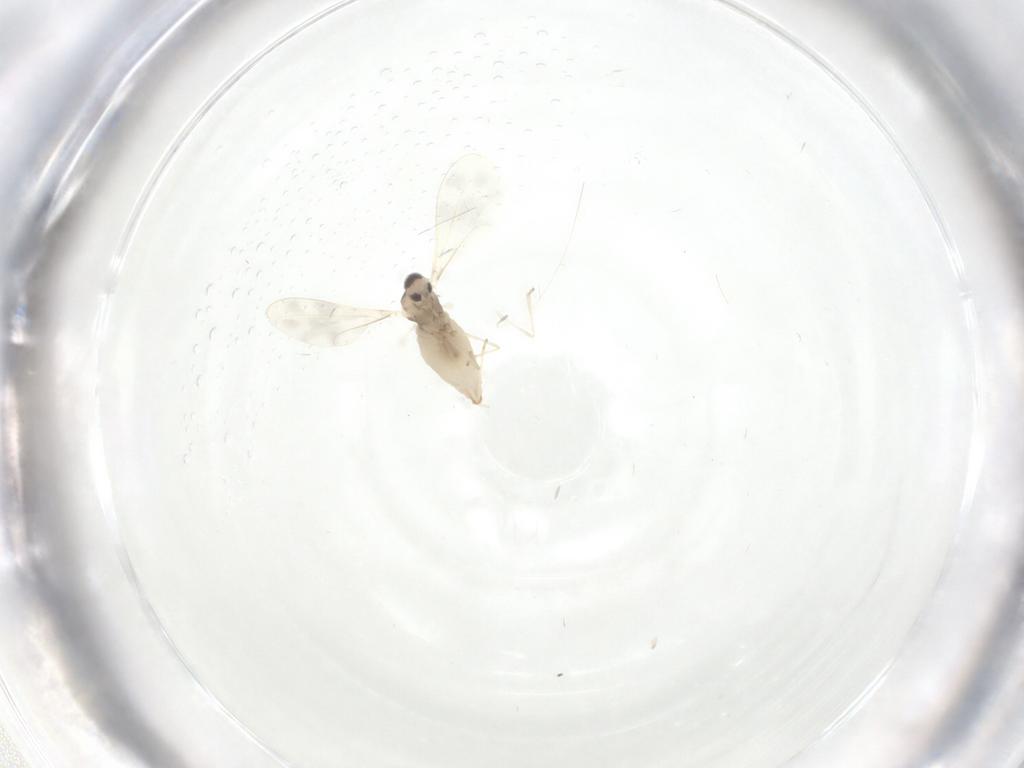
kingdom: Animalia
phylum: Arthropoda
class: Insecta
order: Diptera
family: Cecidomyiidae
